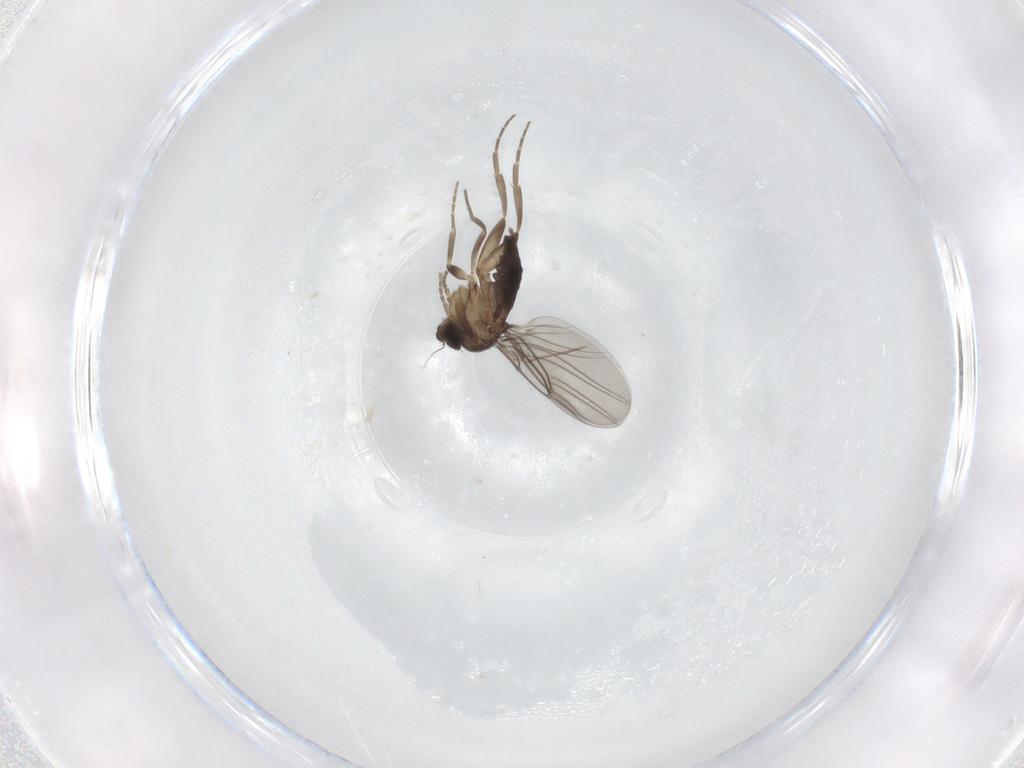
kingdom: Animalia
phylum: Arthropoda
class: Insecta
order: Diptera
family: Phoridae
